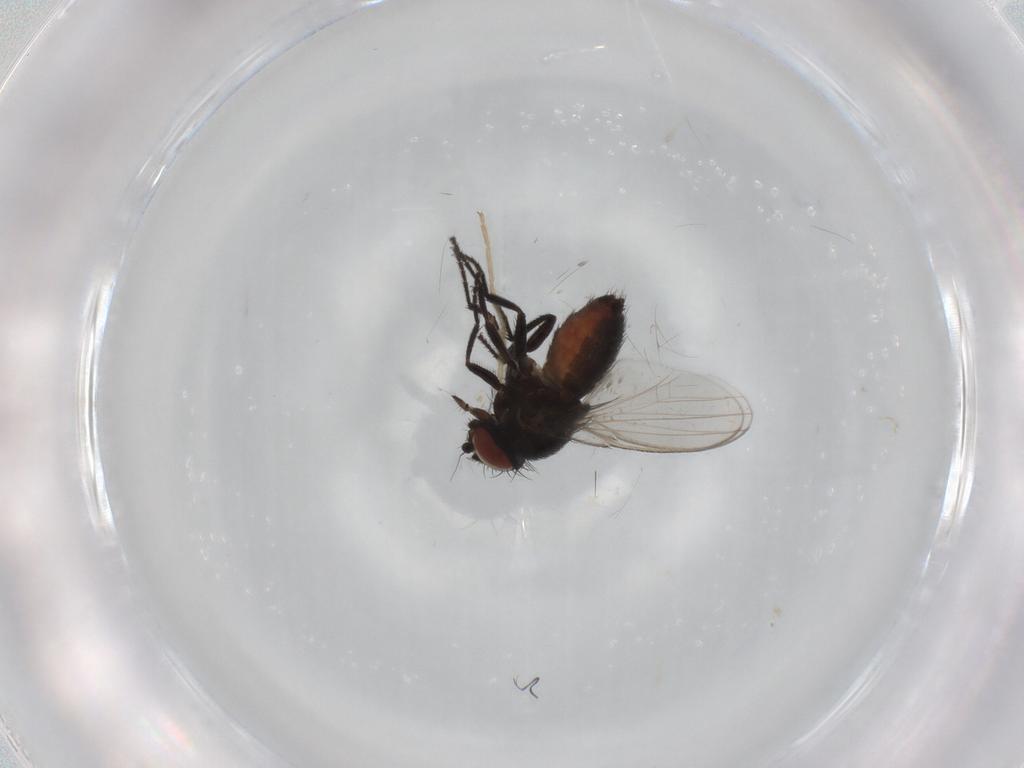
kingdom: Animalia
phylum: Arthropoda
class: Insecta
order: Diptera
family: Milichiidae
